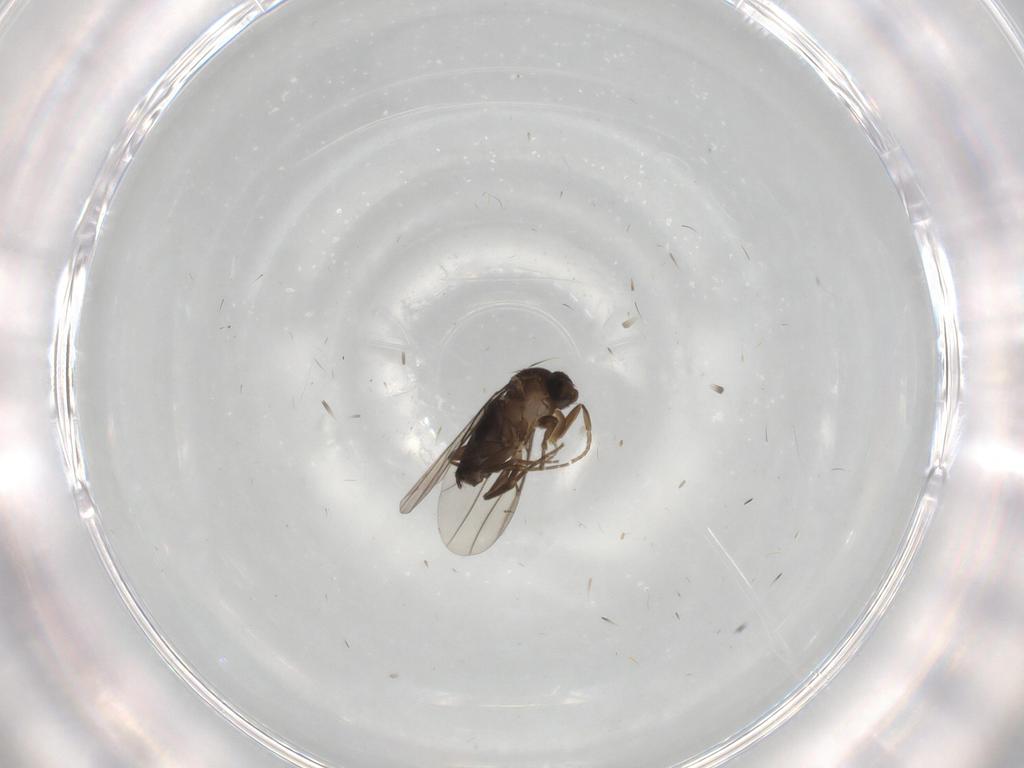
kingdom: Animalia
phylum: Arthropoda
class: Insecta
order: Diptera
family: Phoridae
